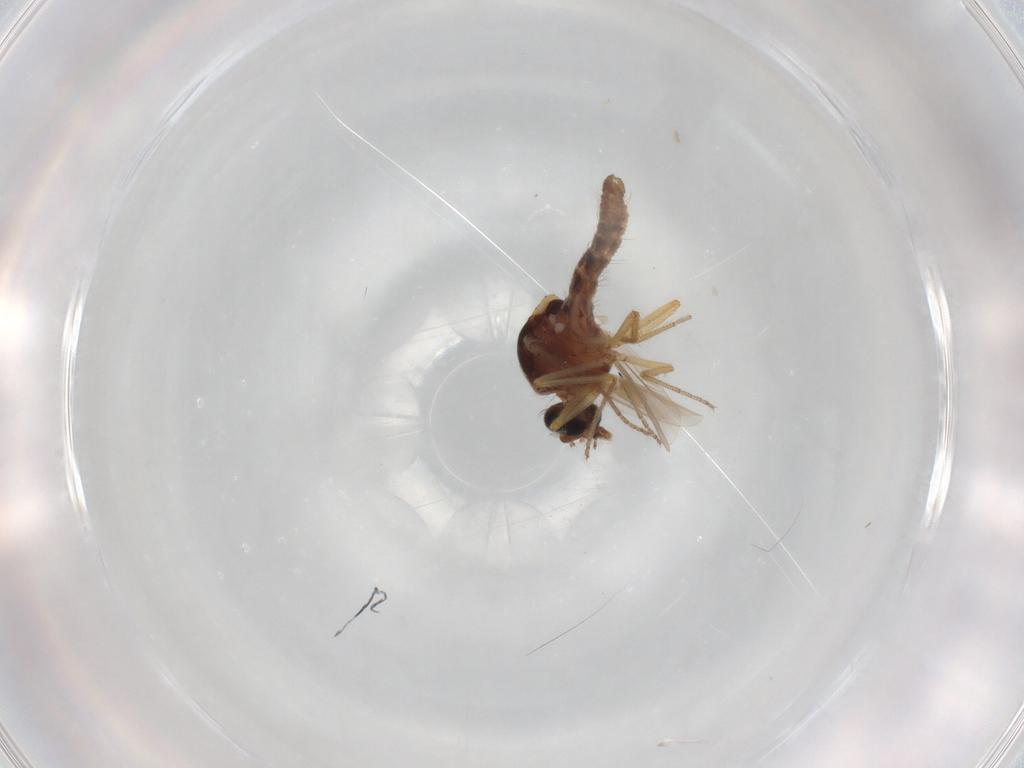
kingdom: Animalia
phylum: Arthropoda
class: Insecta
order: Diptera
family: Ceratopogonidae
